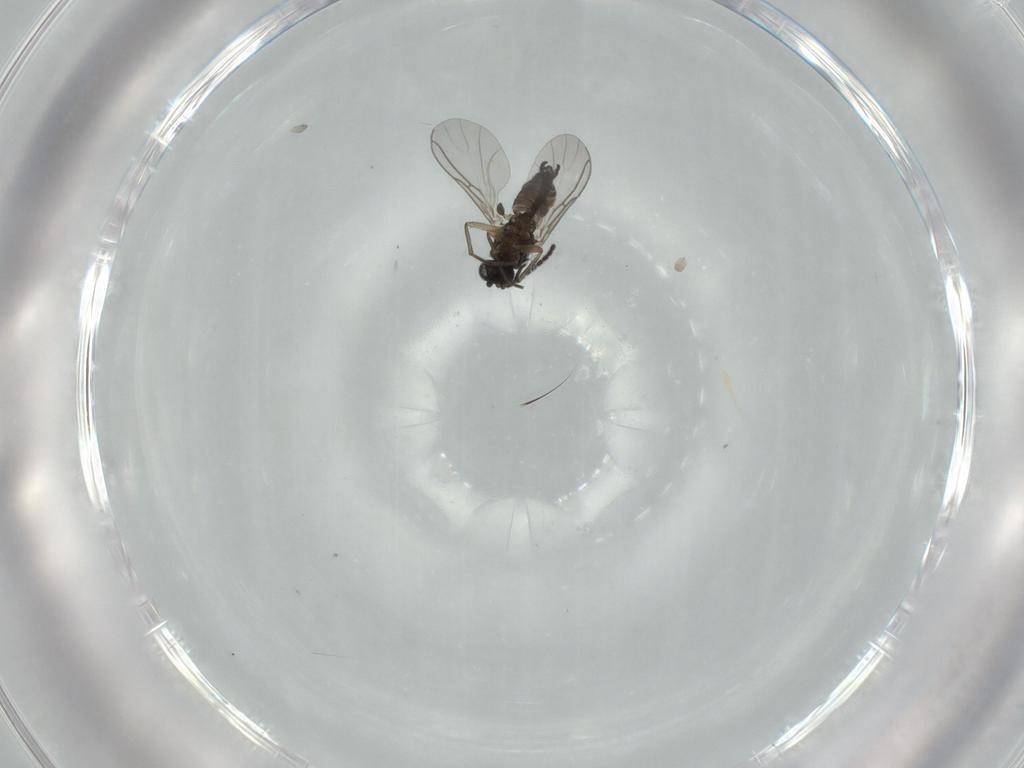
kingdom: Animalia
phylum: Arthropoda
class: Insecta
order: Diptera
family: Sciaridae
